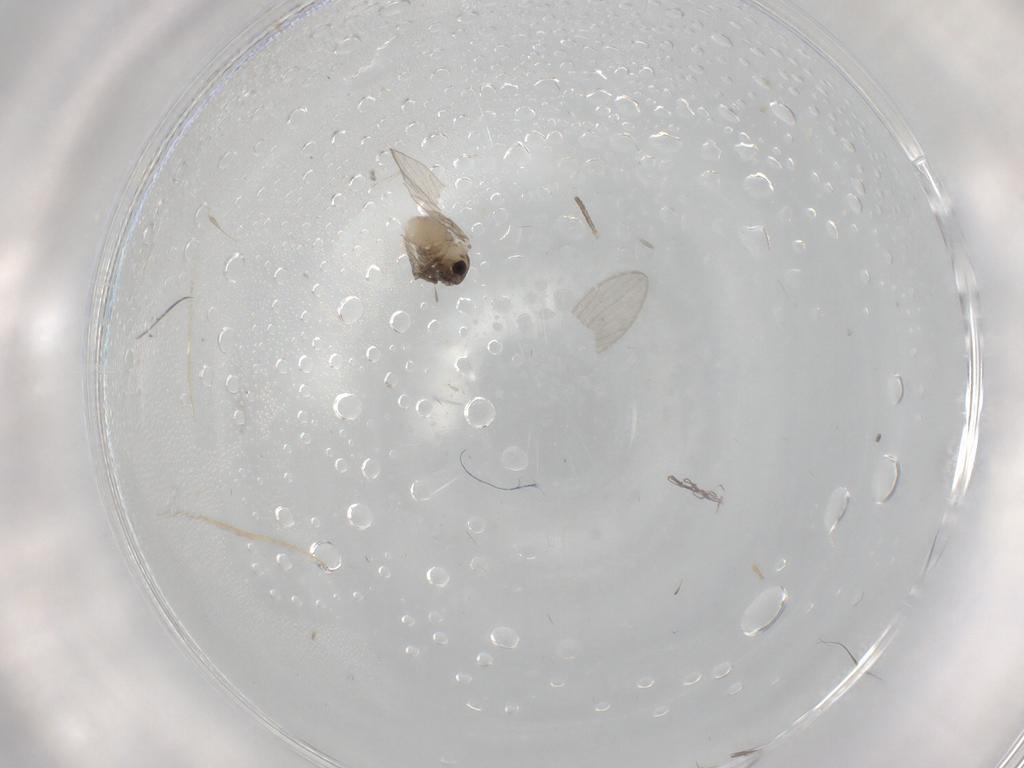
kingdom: Animalia
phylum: Arthropoda
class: Insecta
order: Diptera
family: Psychodidae
